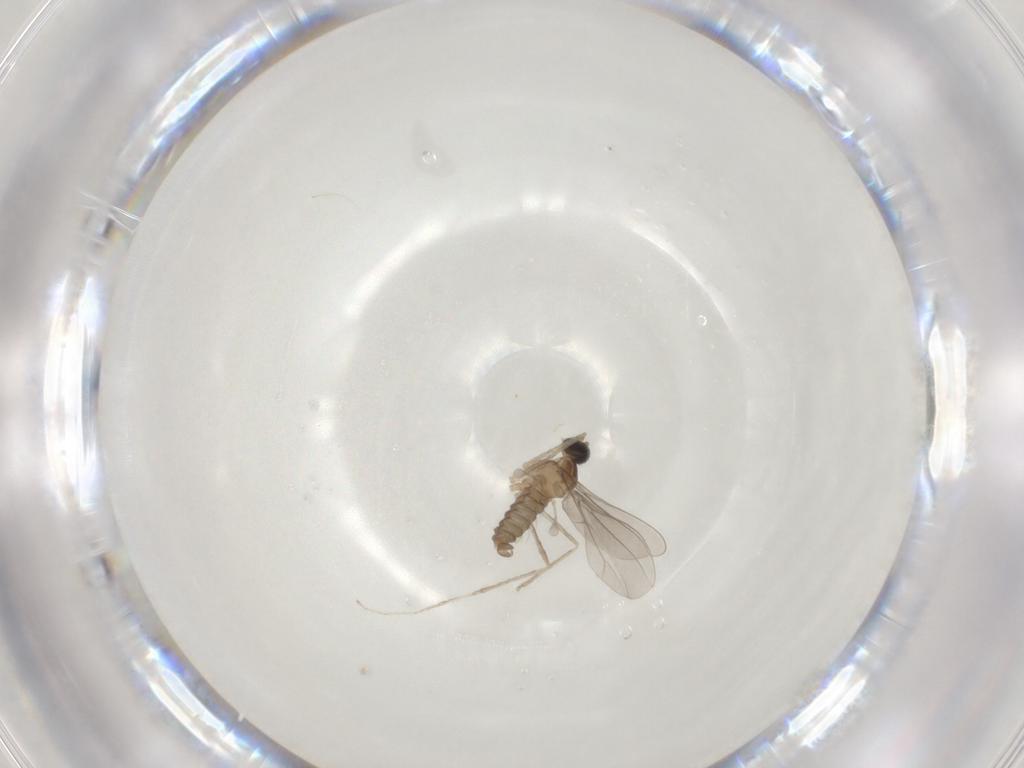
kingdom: Animalia
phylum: Arthropoda
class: Insecta
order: Diptera
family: Cecidomyiidae
